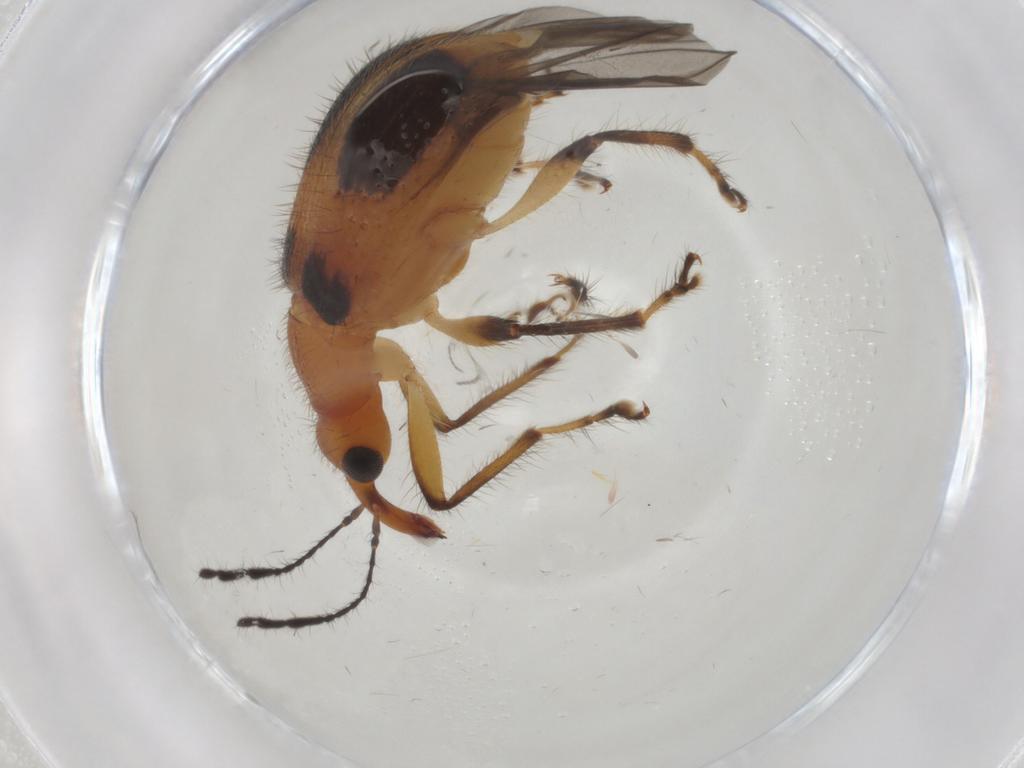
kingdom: Animalia
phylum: Arthropoda
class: Insecta
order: Coleoptera
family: Attelabidae
